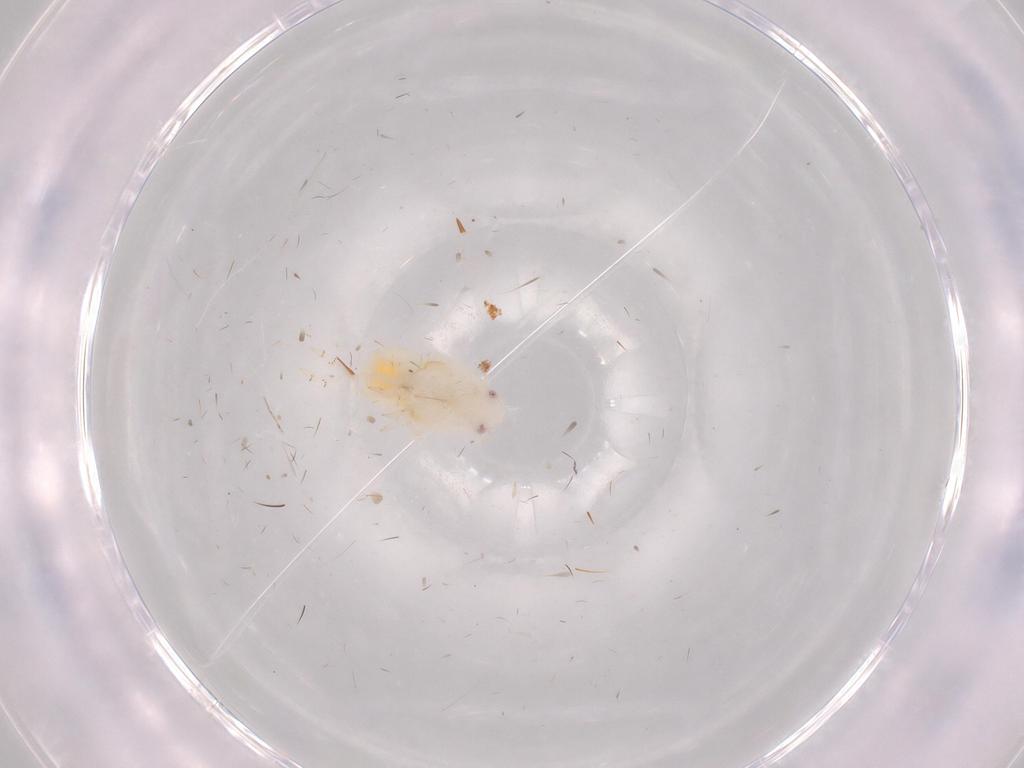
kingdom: Animalia
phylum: Arthropoda
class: Insecta
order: Hemiptera
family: Flatidae
